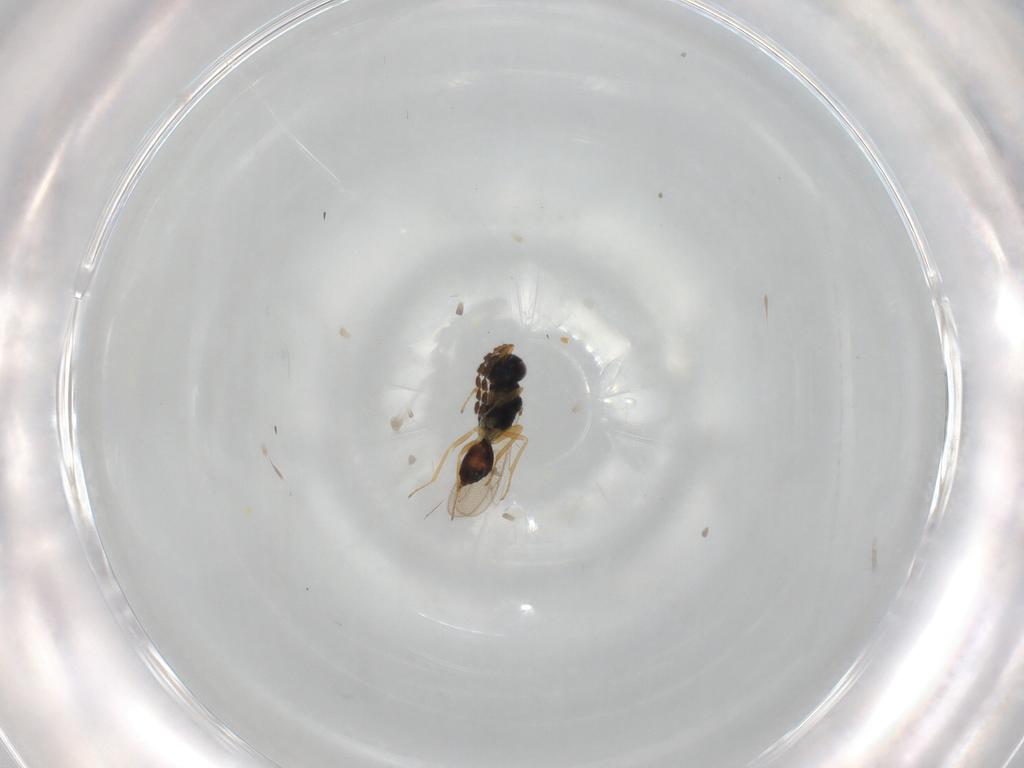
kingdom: Animalia
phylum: Arthropoda
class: Insecta
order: Hymenoptera
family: Eulophidae
